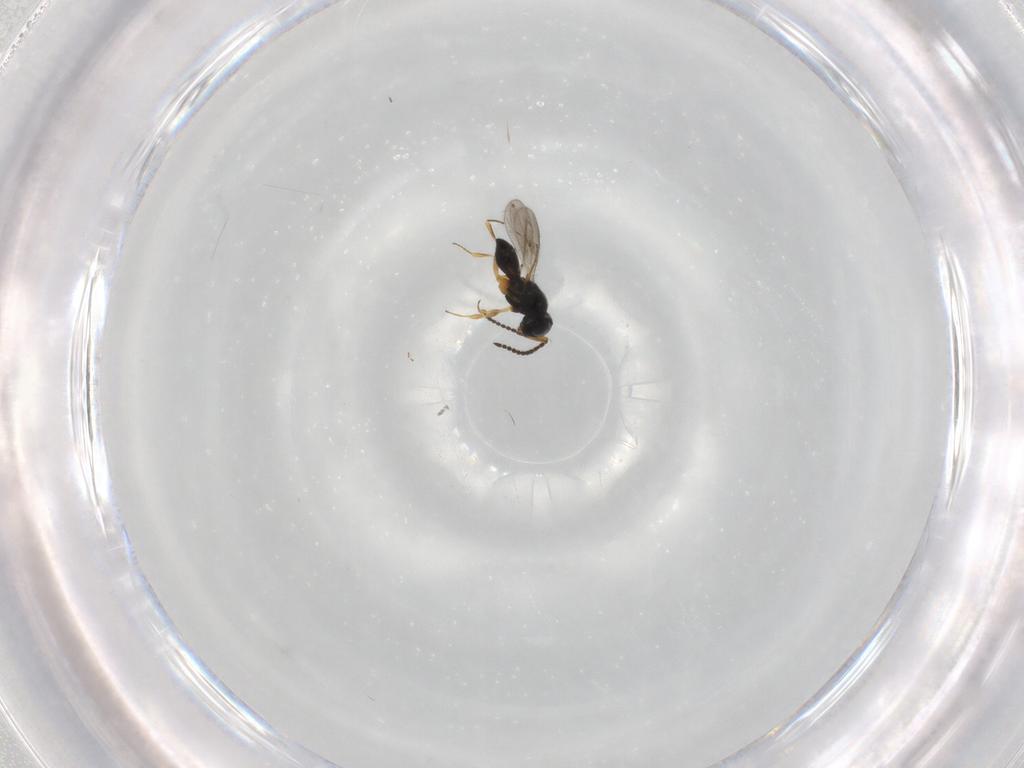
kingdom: Animalia
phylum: Arthropoda
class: Insecta
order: Hymenoptera
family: Scelionidae
